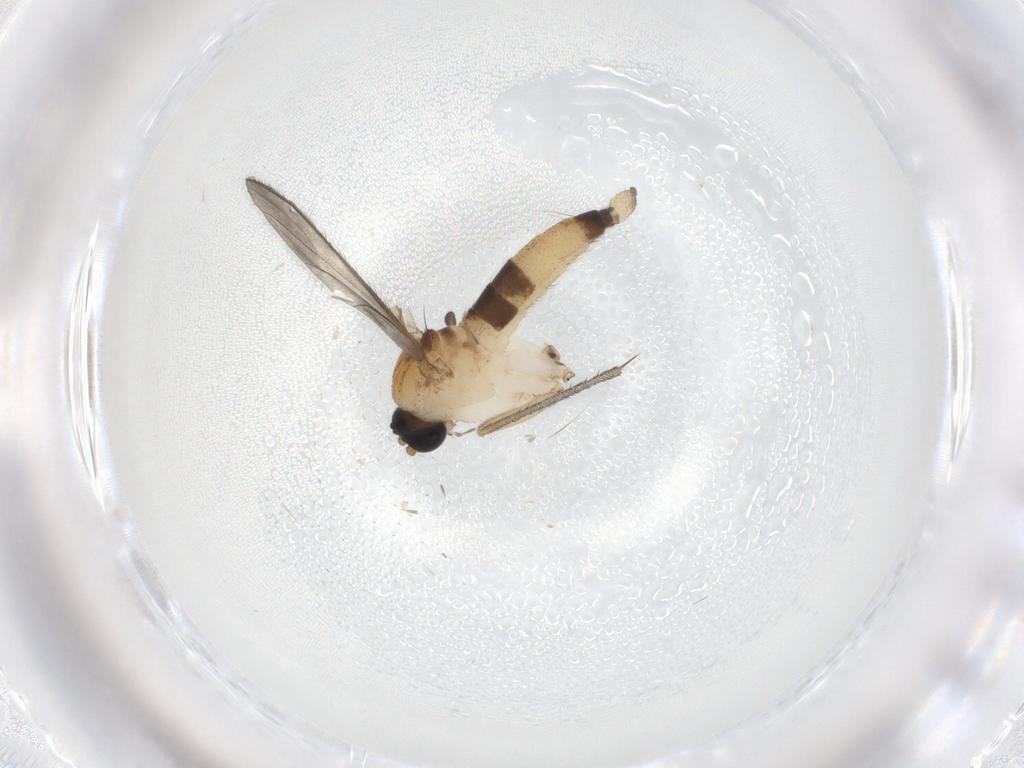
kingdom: Animalia
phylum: Arthropoda
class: Insecta
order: Diptera
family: Sciaridae
